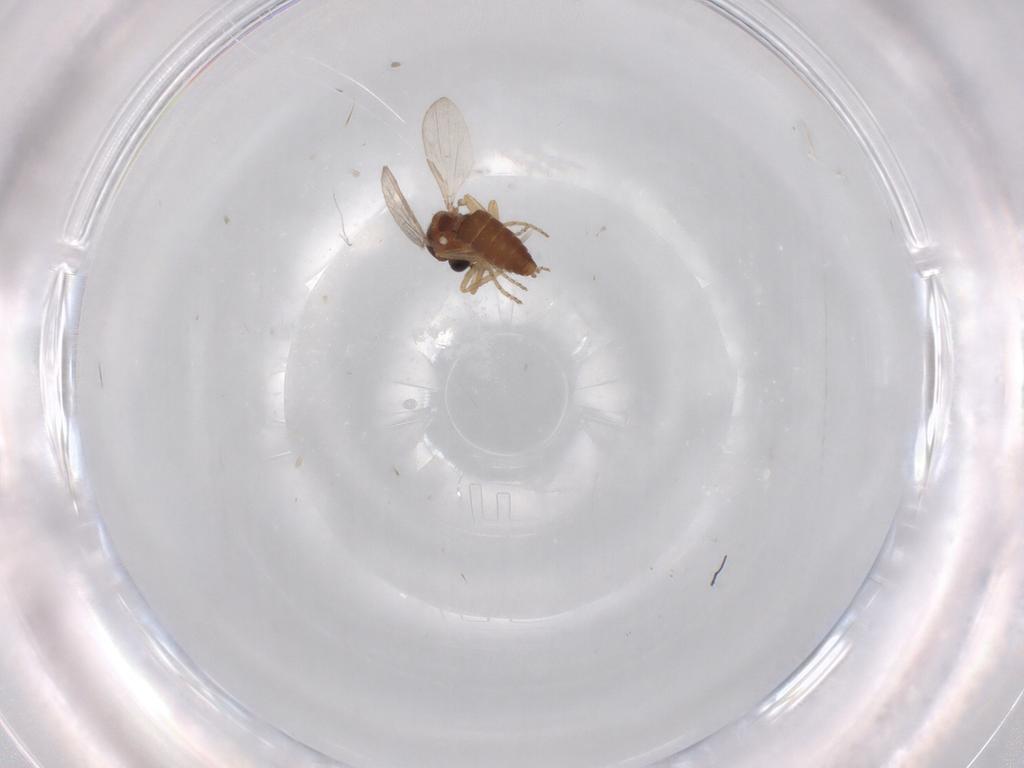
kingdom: Animalia
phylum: Arthropoda
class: Insecta
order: Diptera
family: Ceratopogonidae
